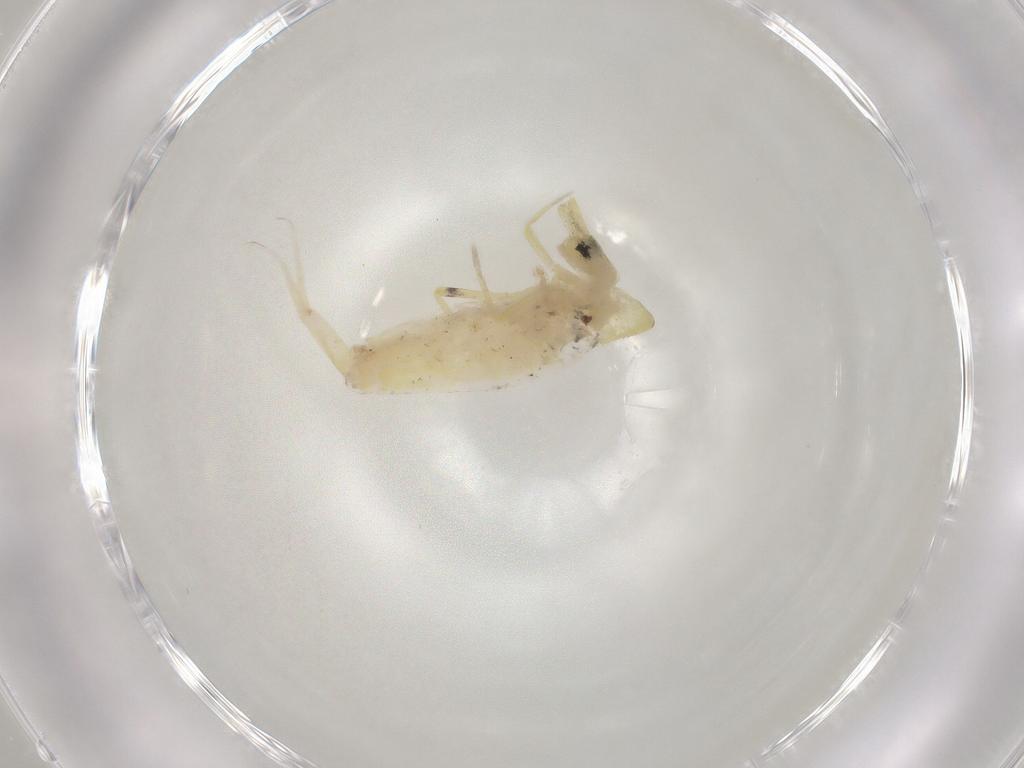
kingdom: Animalia
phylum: Arthropoda
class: Collembola
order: Entomobryomorpha
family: Entomobryidae
